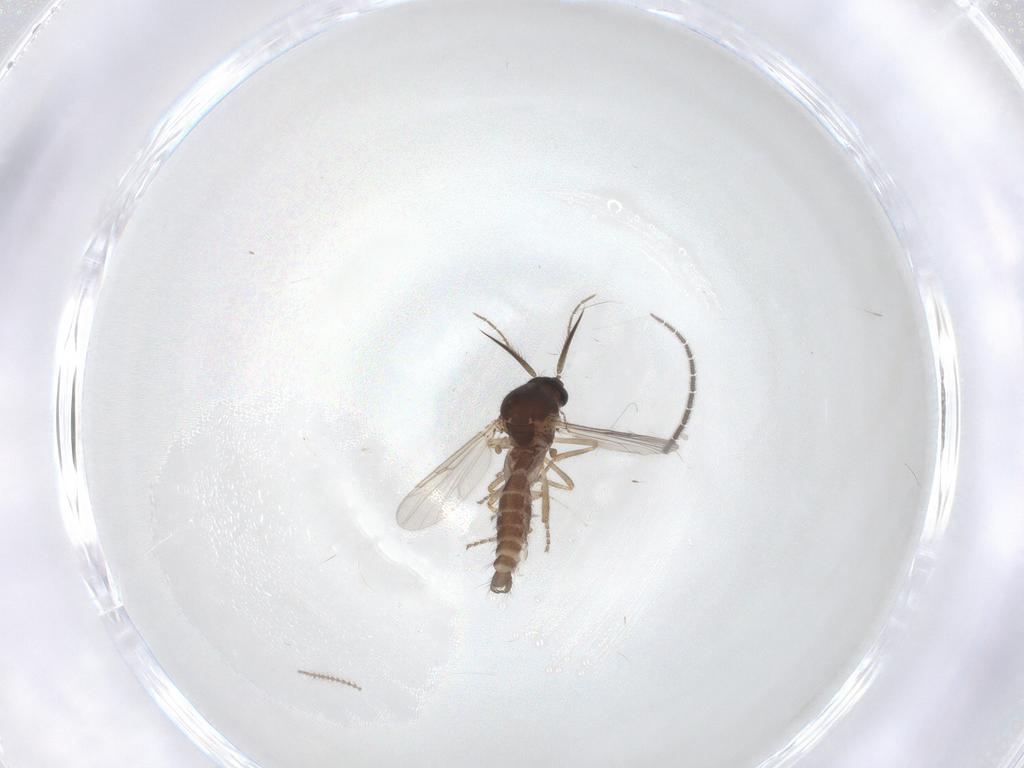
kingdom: Animalia
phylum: Arthropoda
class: Insecta
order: Diptera
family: Ceratopogonidae
